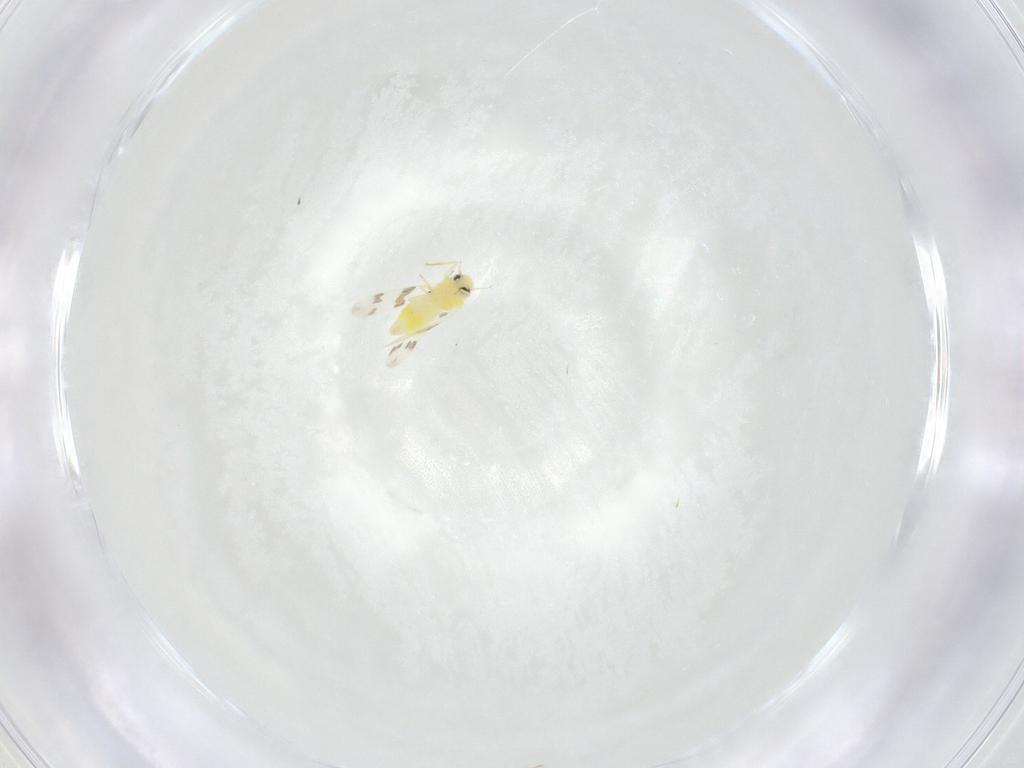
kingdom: Animalia
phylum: Arthropoda
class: Insecta
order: Hemiptera
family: Aleyrodidae
